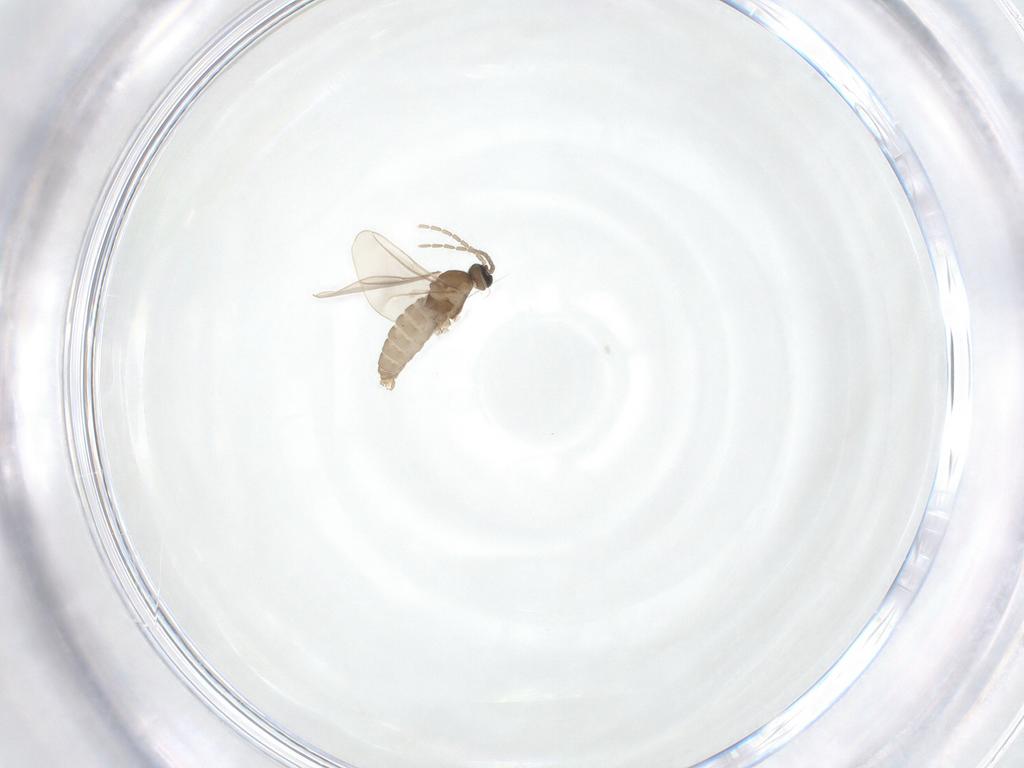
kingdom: Animalia
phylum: Arthropoda
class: Insecta
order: Diptera
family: Cecidomyiidae
